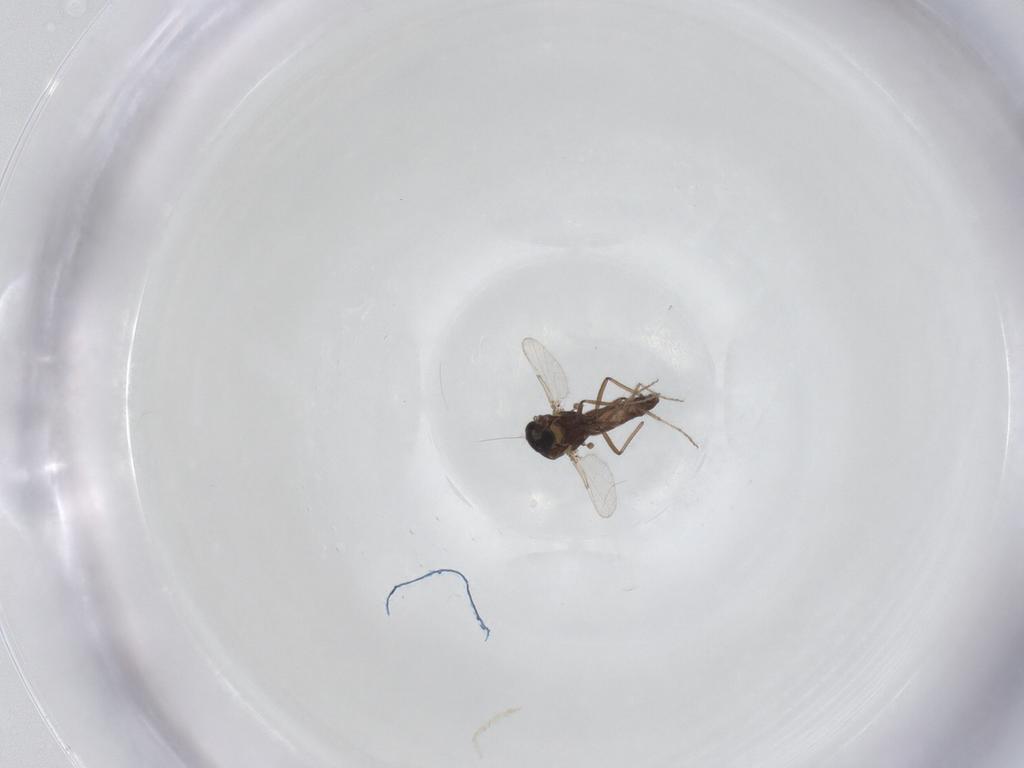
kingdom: Animalia
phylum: Arthropoda
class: Insecta
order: Diptera
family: Ceratopogonidae
